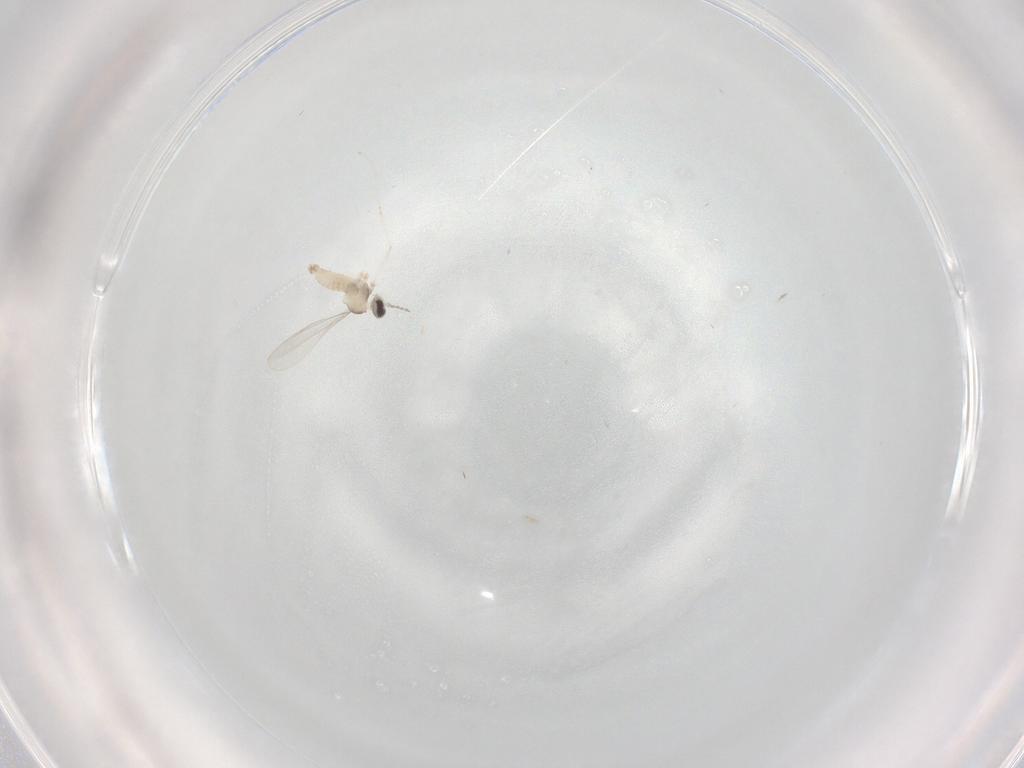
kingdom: Animalia
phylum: Arthropoda
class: Insecta
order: Diptera
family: Cecidomyiidae
